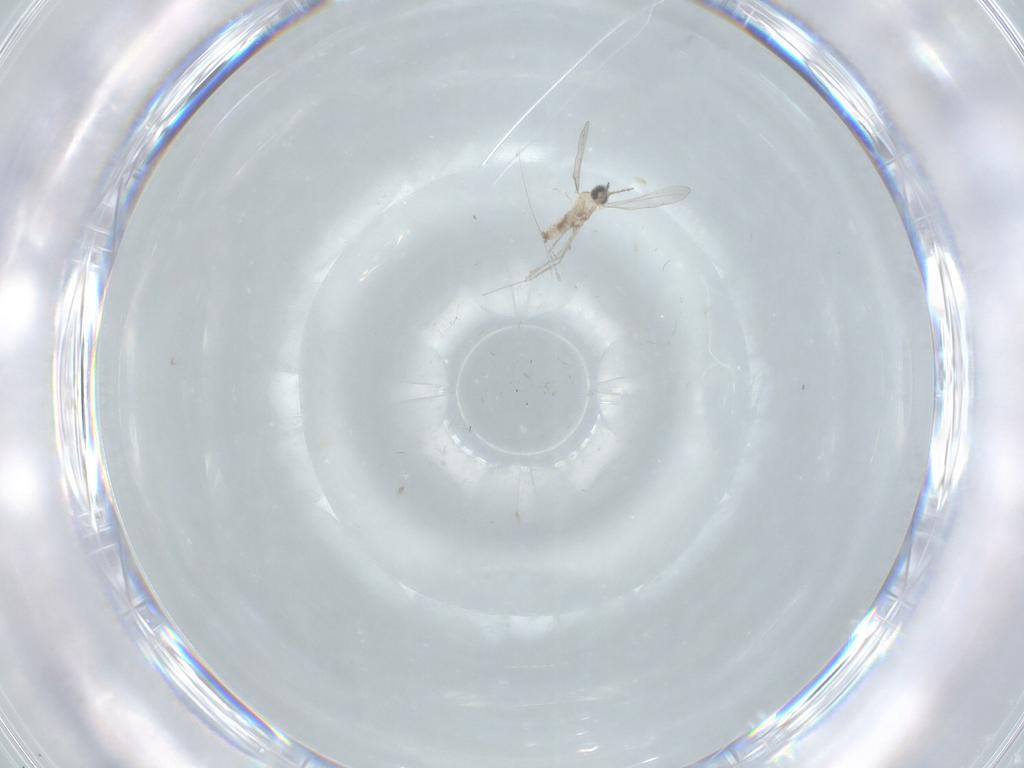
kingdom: Animalia
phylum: Arthropoda
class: Insecta
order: Diptera
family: Cecidomyiidae
